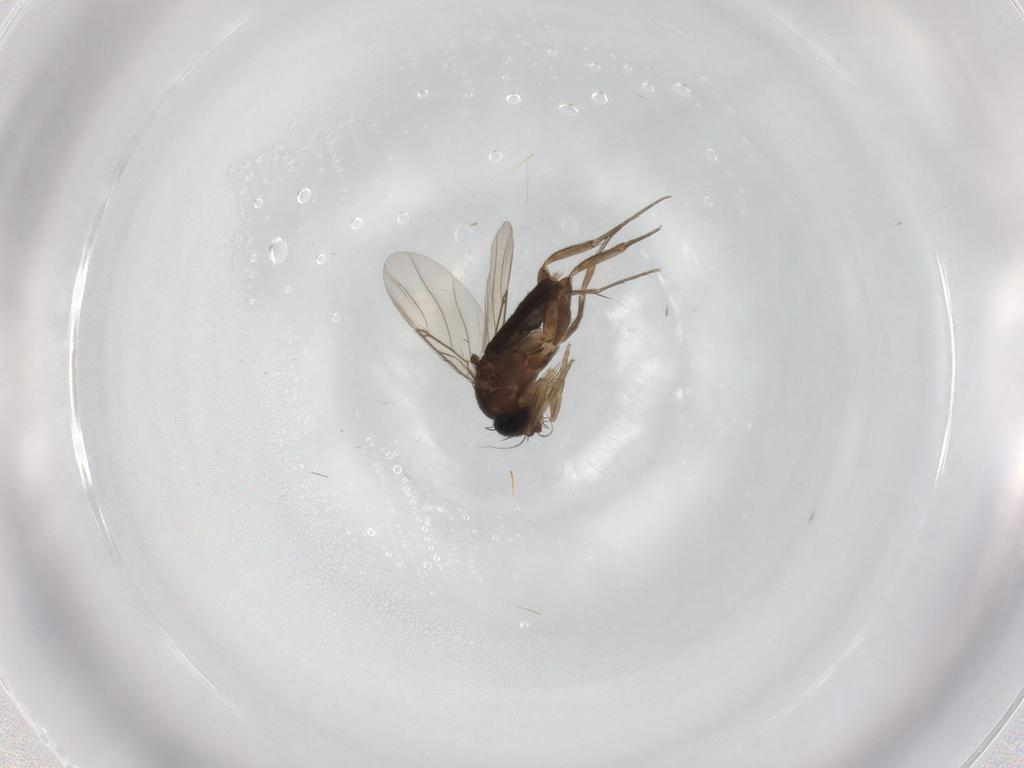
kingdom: Animalia
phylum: Arthropoda
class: Insecta
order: Diptera
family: Phoridae
